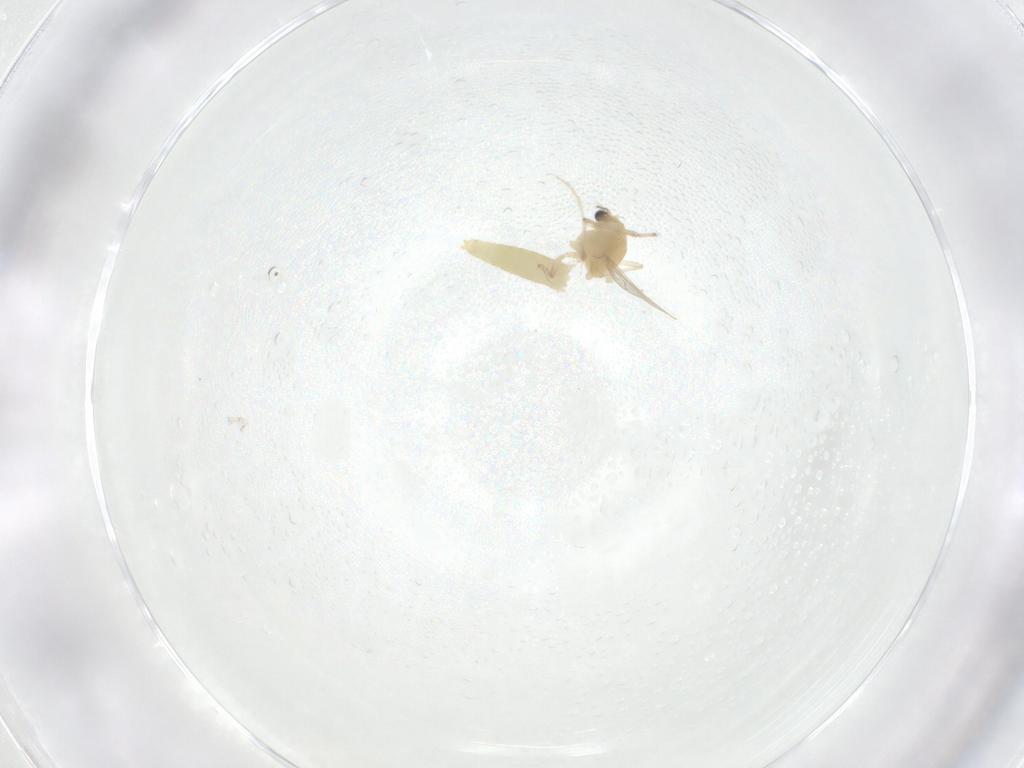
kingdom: Animalia
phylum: Arthropoda
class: Insecta
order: Diptera
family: Chironomidae
